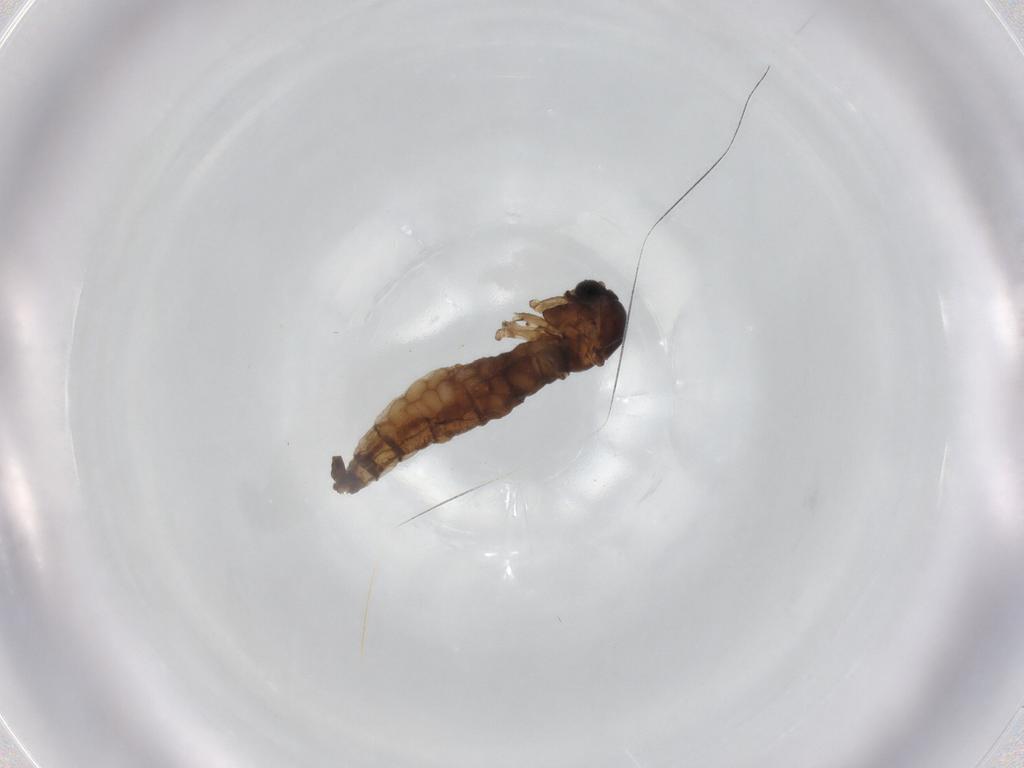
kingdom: Animalia
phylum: Arthropoda
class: Insecta
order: Diptera
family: Sciaridae
